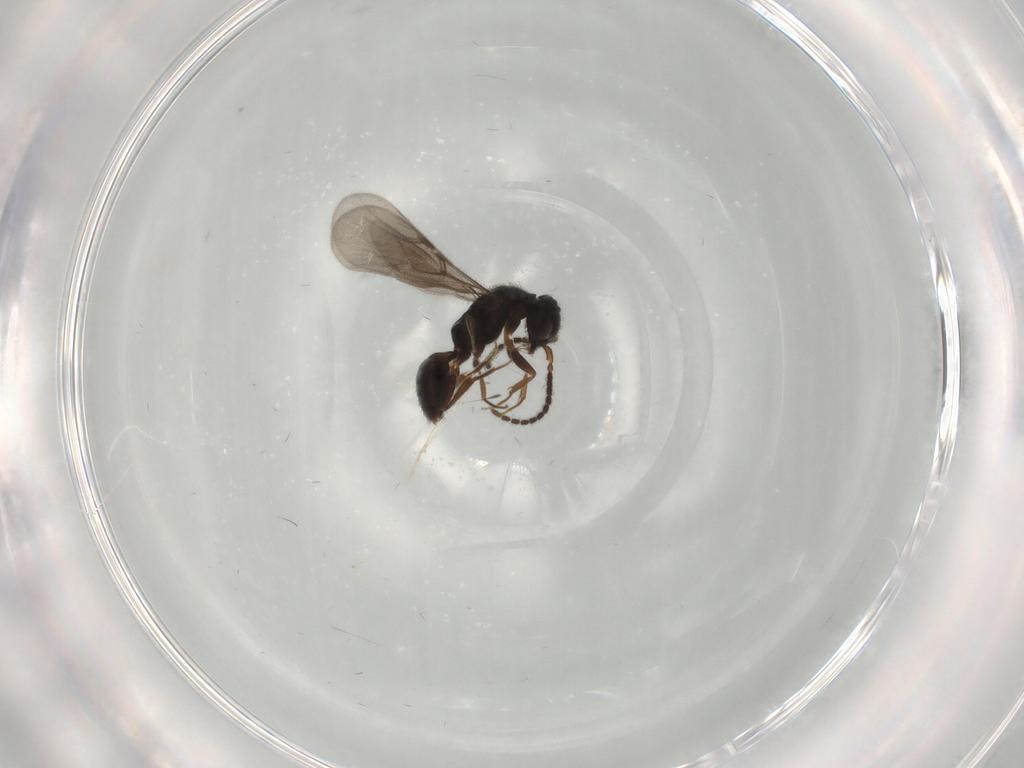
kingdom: Animalia
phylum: Arthropoda
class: Insecta
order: Hymenoptera
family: Bethylidae
